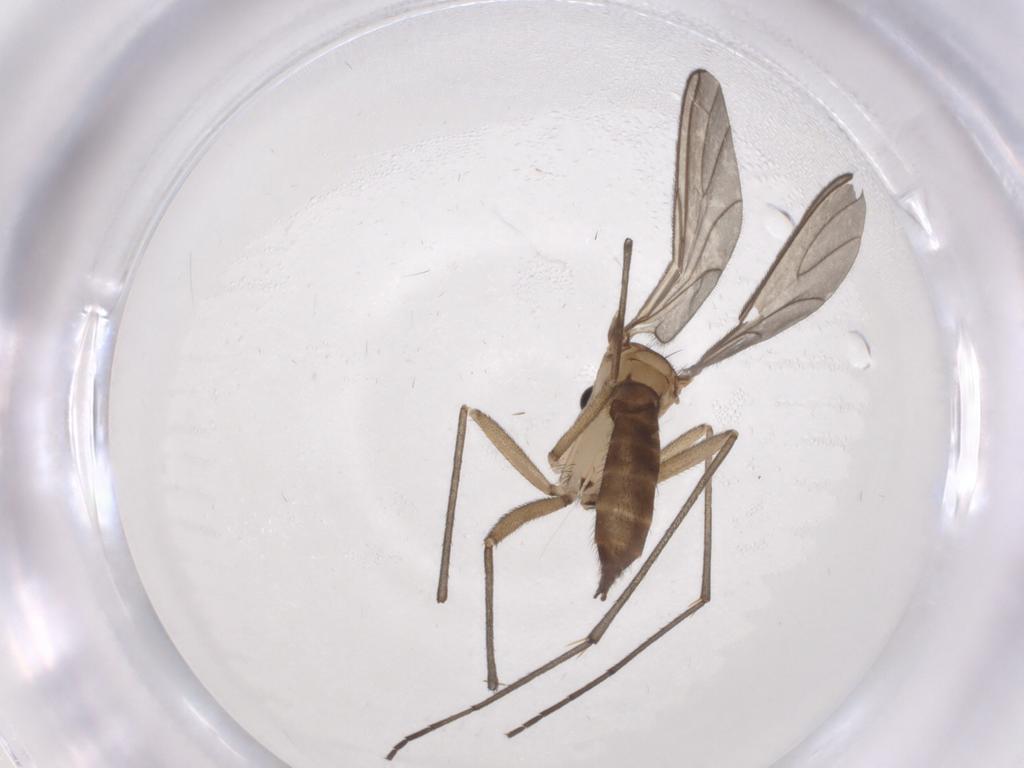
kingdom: Animalia
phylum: Arthropoda
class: Insecta
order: Diptera
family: Sciaridae
